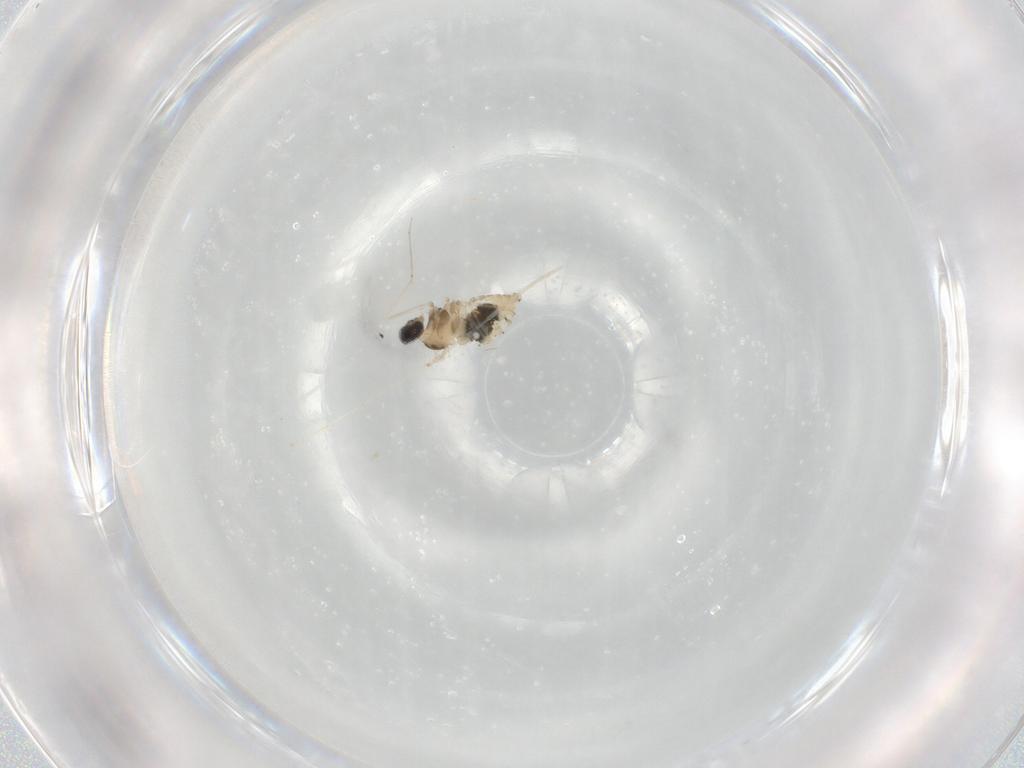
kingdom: Animalia
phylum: Arthropoda
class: Insecta
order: Diptera
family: Cecidomyiidae
